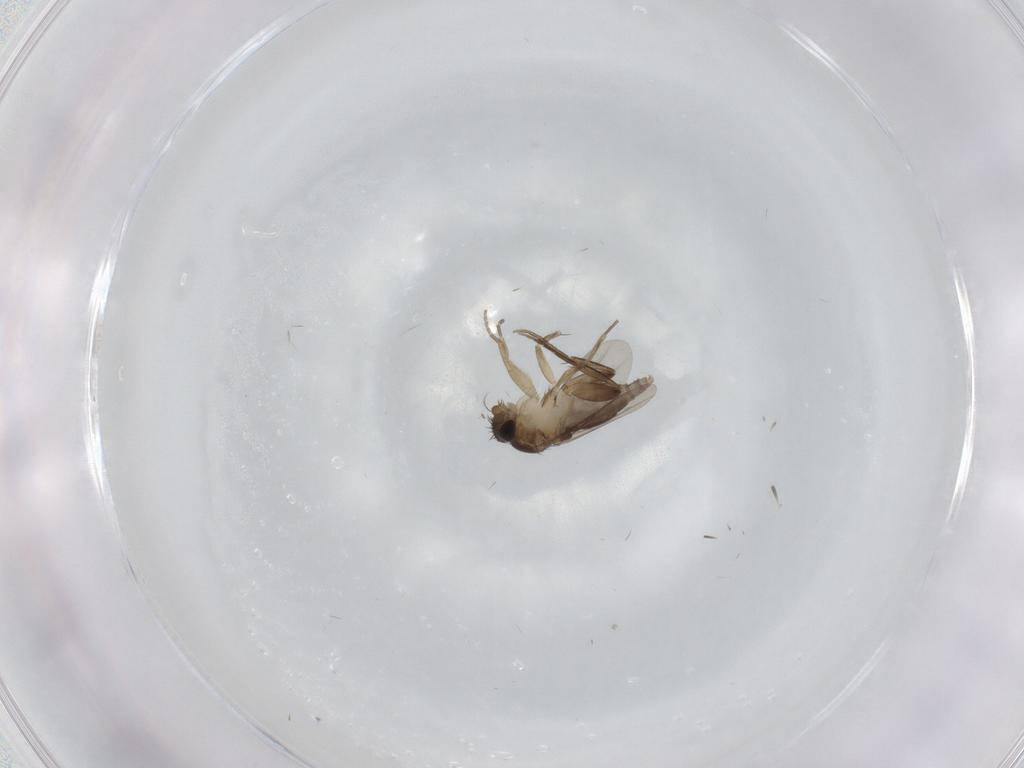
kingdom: Animalia
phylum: Arthropoda
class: Insecta
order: Diptera
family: Phoridae
